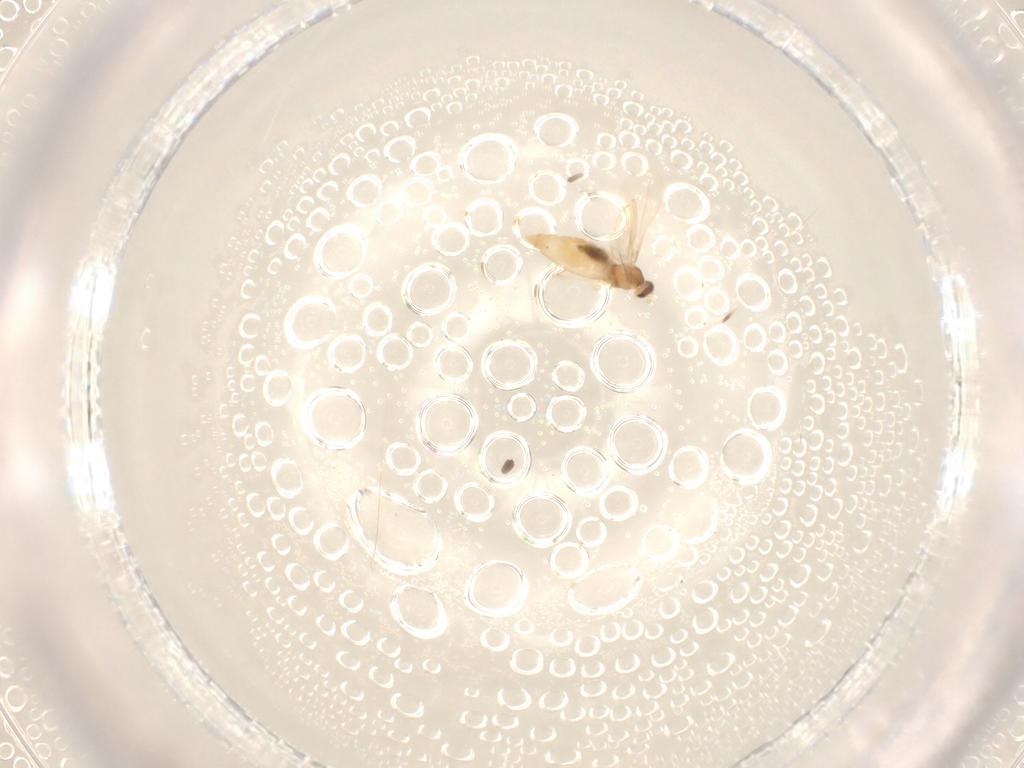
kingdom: Animalia
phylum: Arthropoda
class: Insecta
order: Diptera
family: Cecidomyiidae
